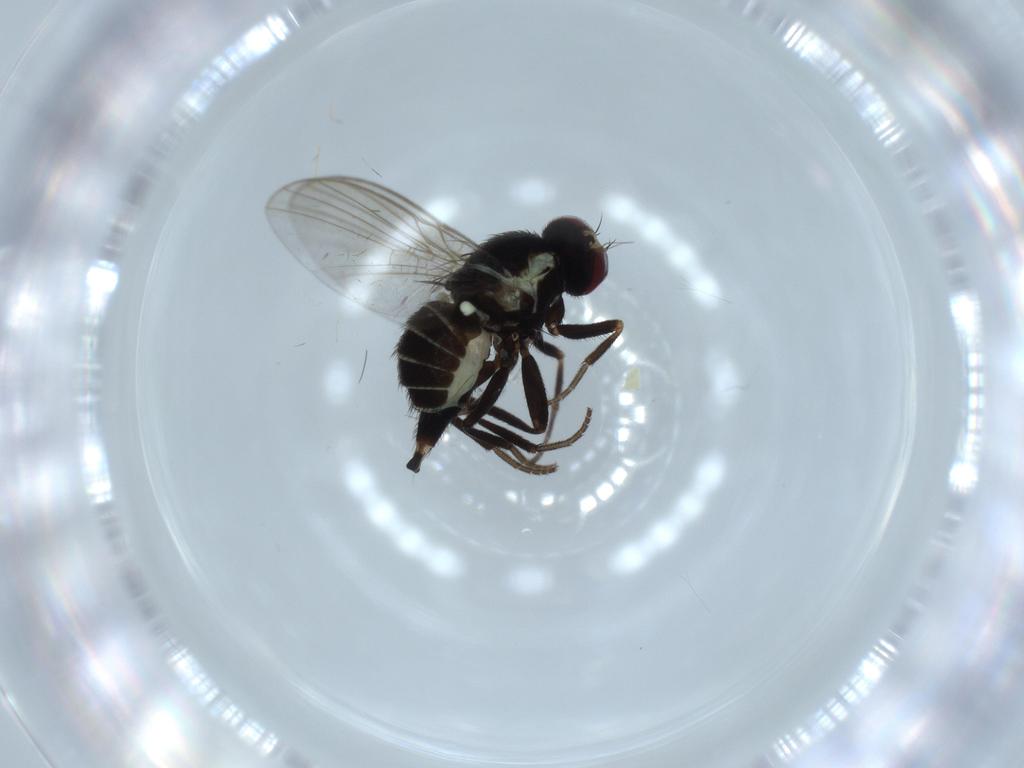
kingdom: Animalia
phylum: Arthropoda
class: Insecta
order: Diptera
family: Agromyzidae
